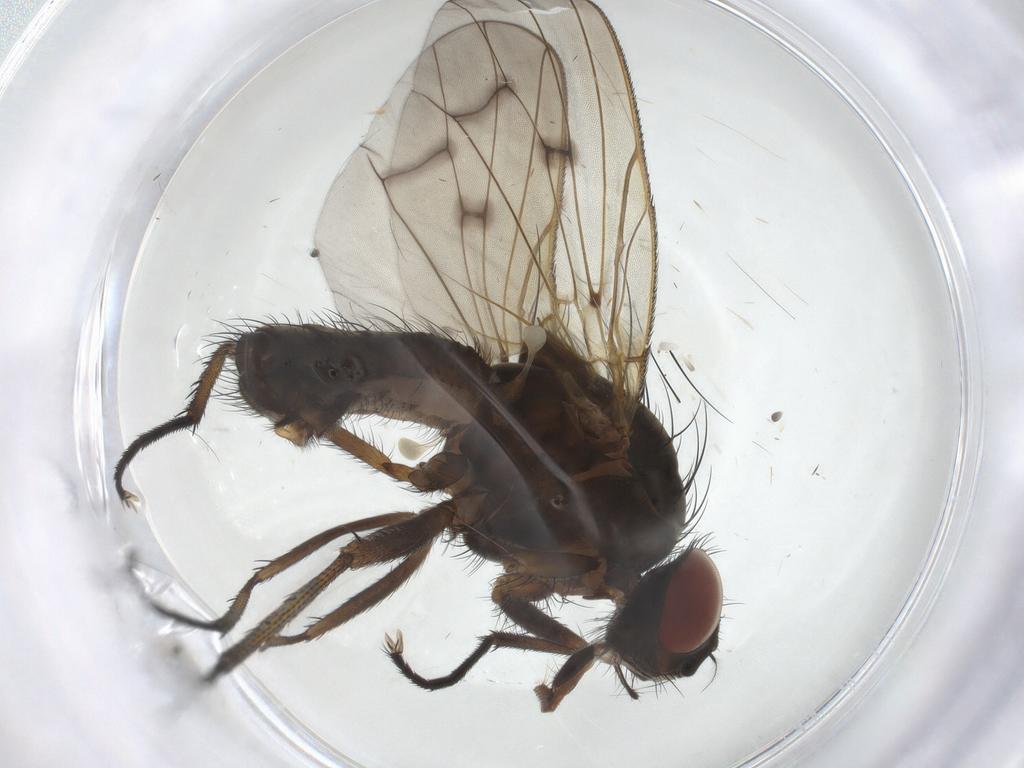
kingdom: Animalia
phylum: Arthropoda
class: Insecta
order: Diptera
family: Anthomyiidae
